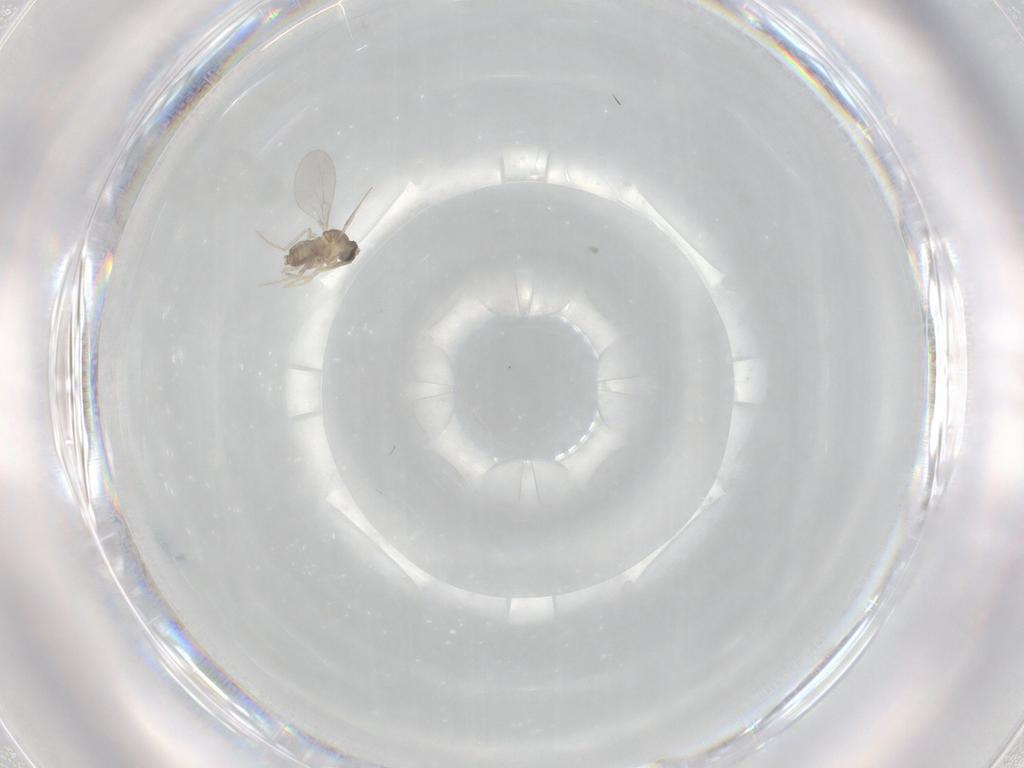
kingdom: Animalia
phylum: Arthropoda
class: Insecta
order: Diptera
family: Cecidomyiidae
